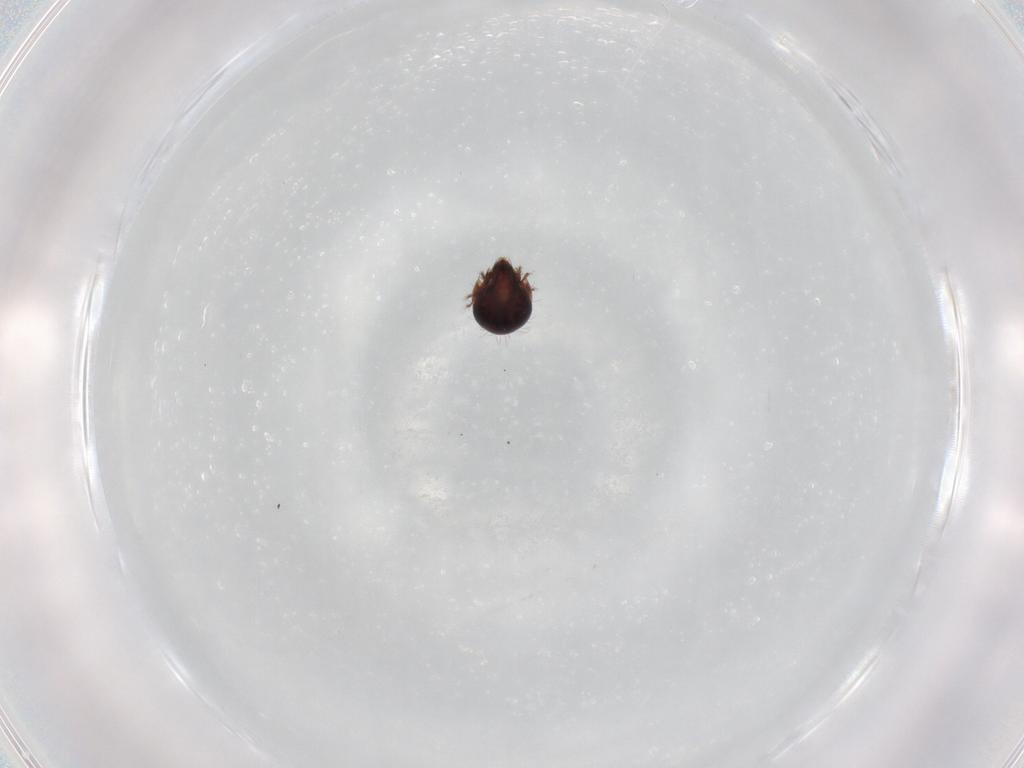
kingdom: Animalia
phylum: Arthropoda
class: Arachnida
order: Sarcoptiformes
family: Humerobatidae
